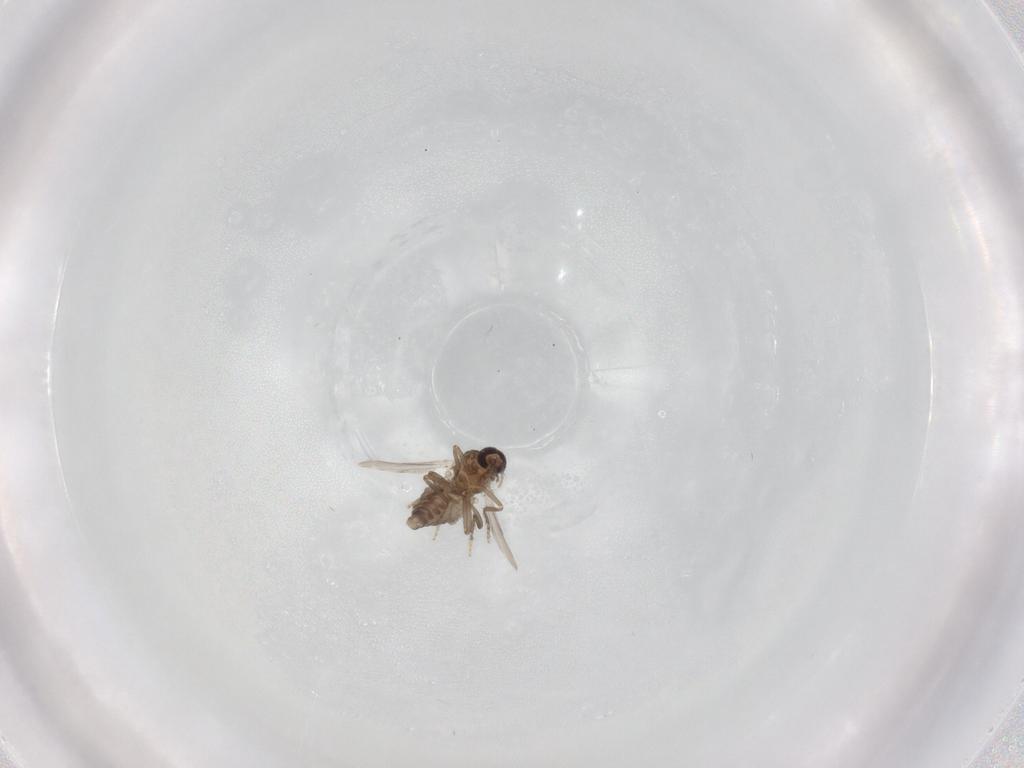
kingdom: Animalia
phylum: Arthropoda
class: Insecta
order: Diptera
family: Ceratopogonidae
